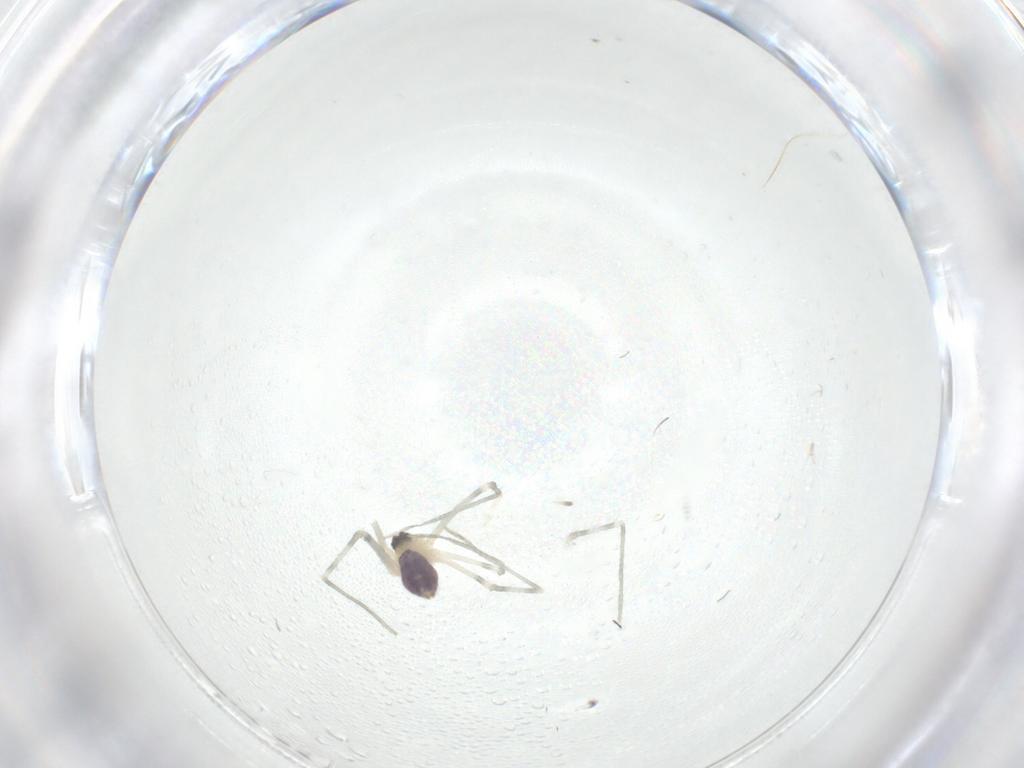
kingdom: Animalia
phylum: Arthropoda
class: Arachnida
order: Araneae
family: Pholcidae
